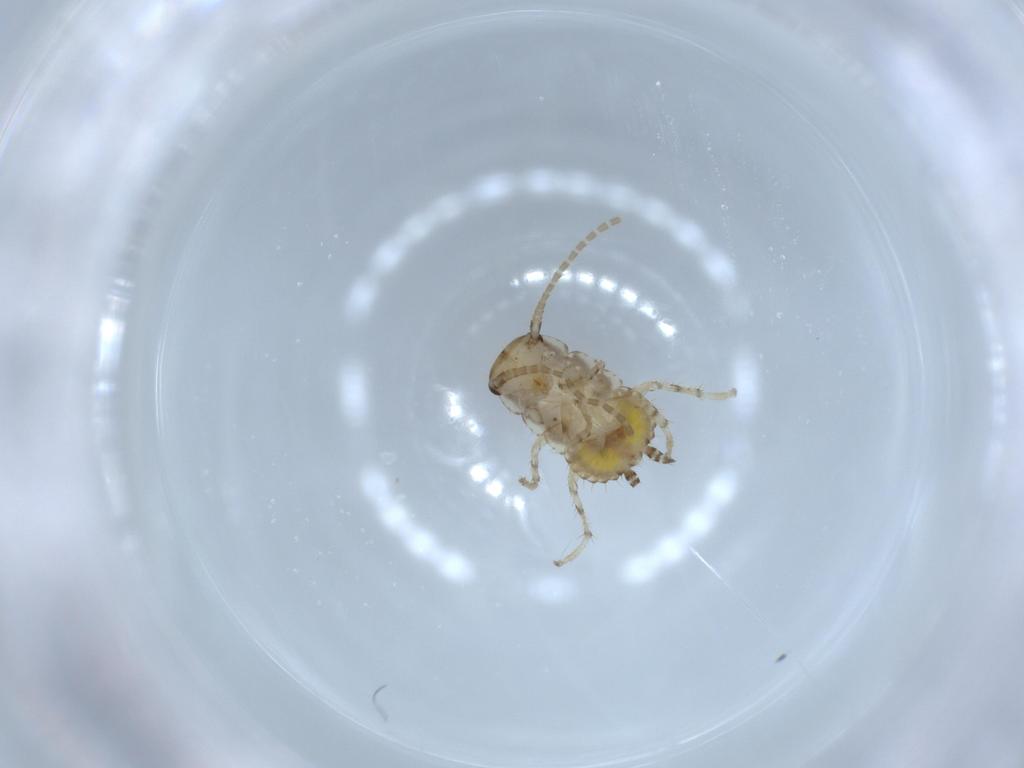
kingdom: Animalia
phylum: Arthropoda
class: Insecta
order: Blattodea
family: Ectobiidae
